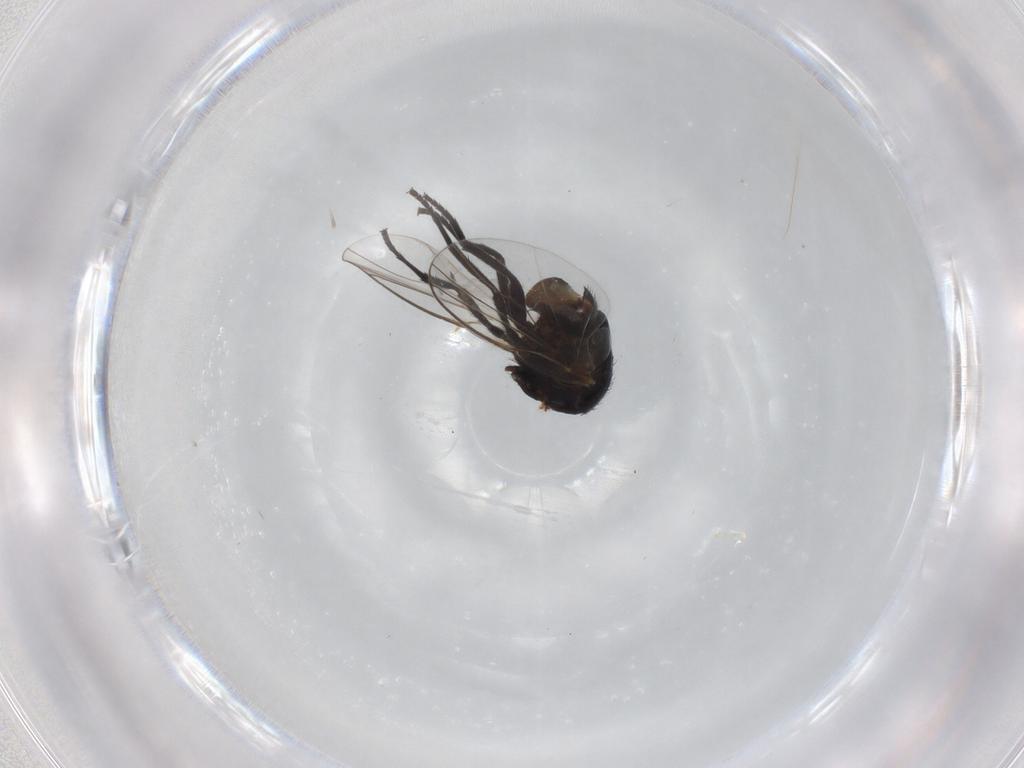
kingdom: Animalia
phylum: Arthropoda
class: Insecta
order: Diptera
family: Agromyzidae
